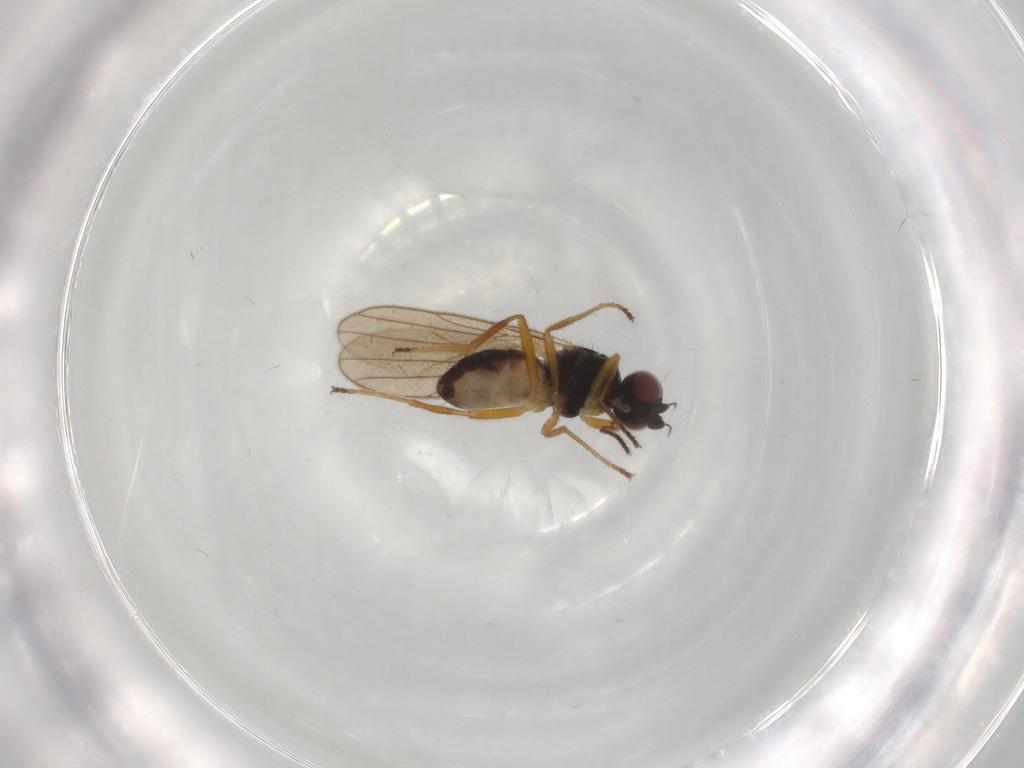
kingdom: Animalia
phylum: Arthropoda
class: Insecta
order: Diptera
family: Chloropidae
